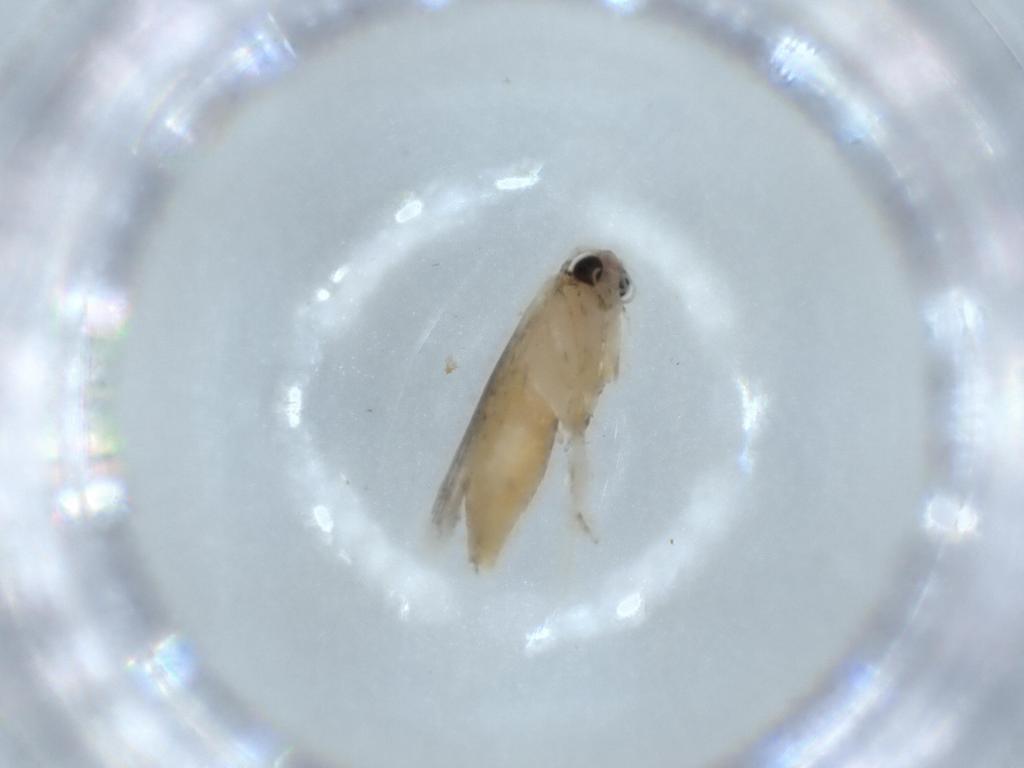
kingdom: Animalia
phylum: Arthropoda
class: Insecta
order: Lepidoptera
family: Tineidae
